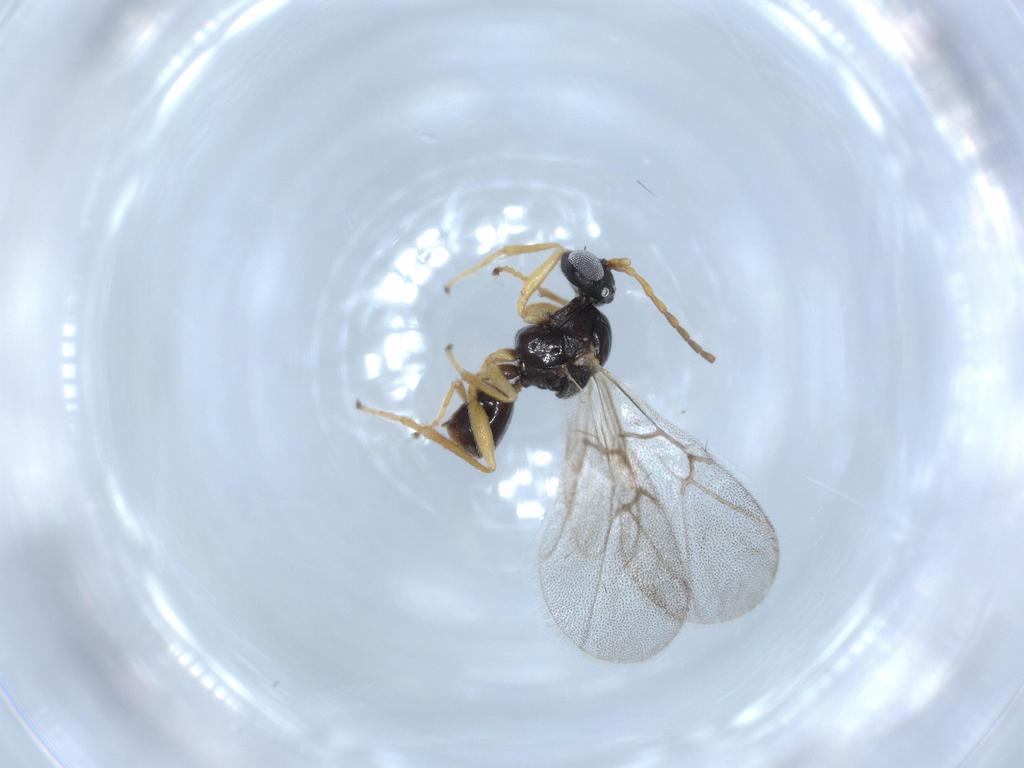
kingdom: Animalia
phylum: Arthropoda
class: Insecta
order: Hymenoptera
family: Cynipidae
